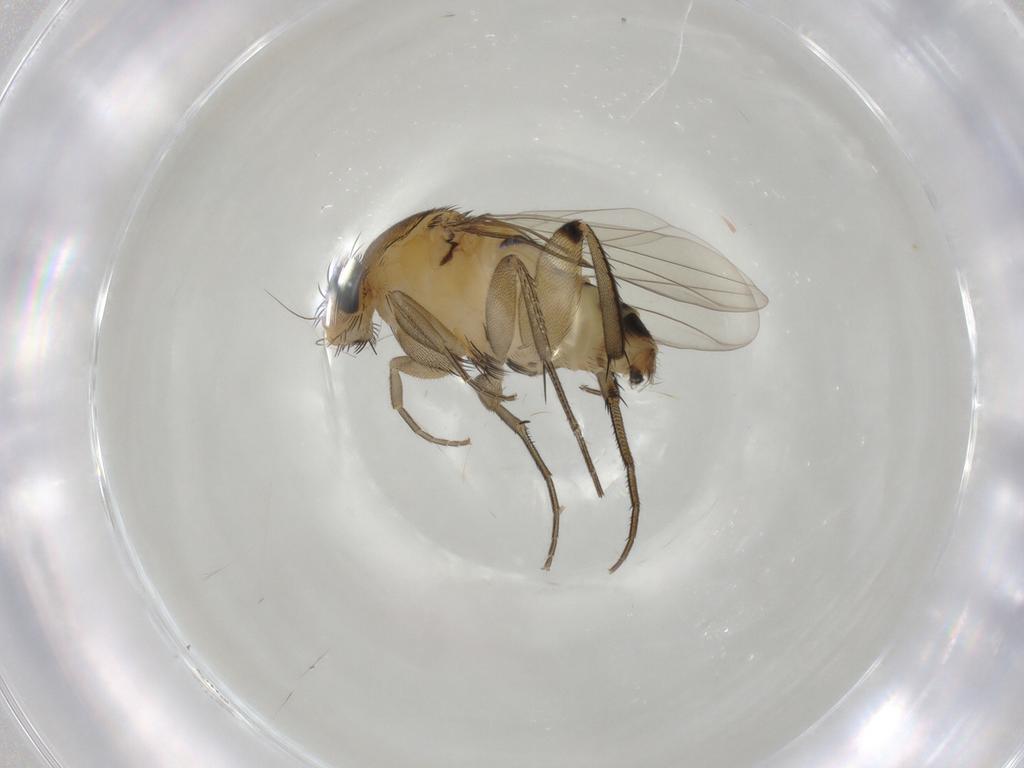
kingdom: Animalia
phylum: Arthropoda
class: Insecta
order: Diptera
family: Phoridae
